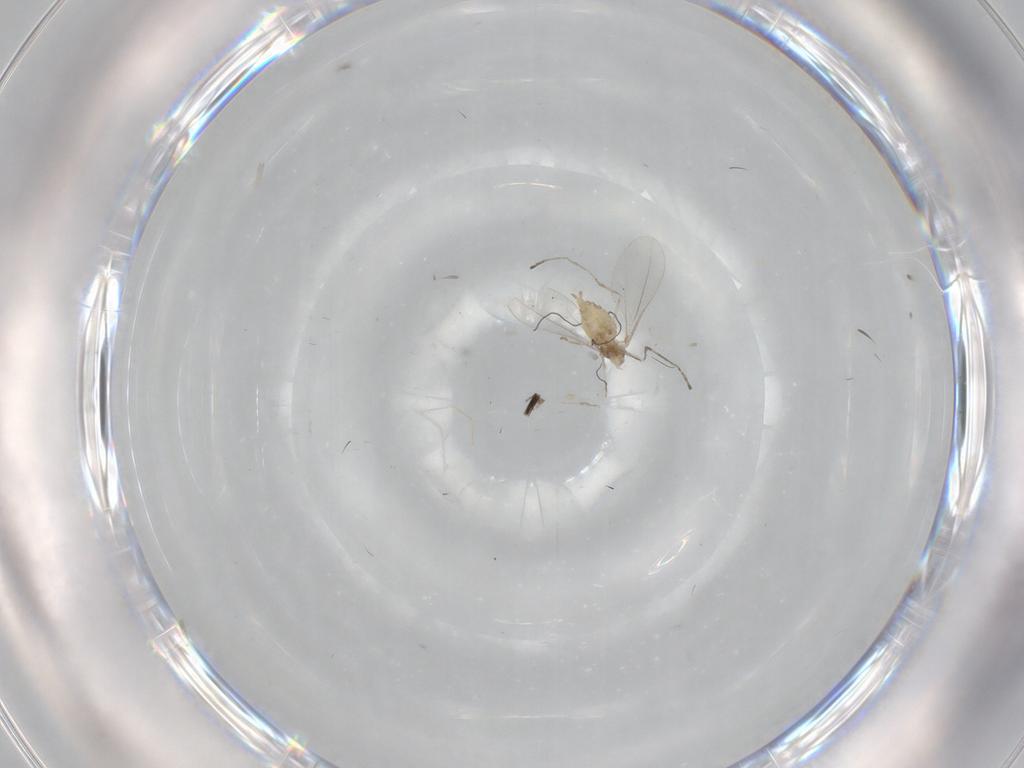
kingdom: Animalia
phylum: Arthropoda
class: Insecta
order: Diptera
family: Cecidomyiidae
